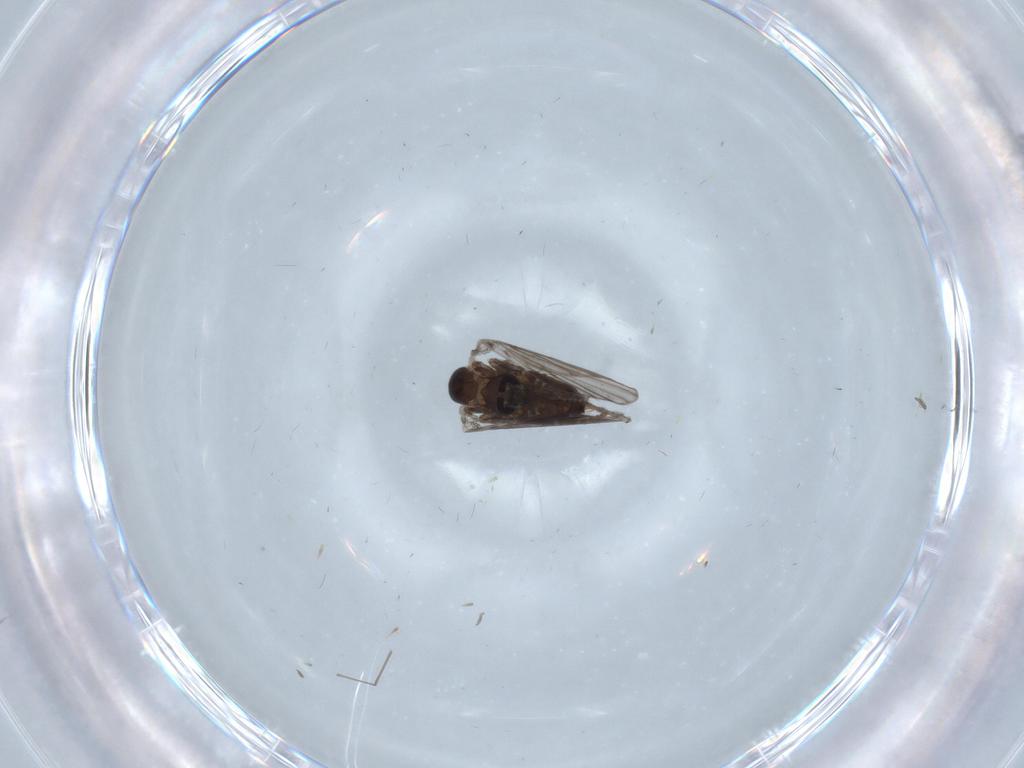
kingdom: Animalia
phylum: Arthropoda
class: Insecta
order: Diptera
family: Psychodidae
